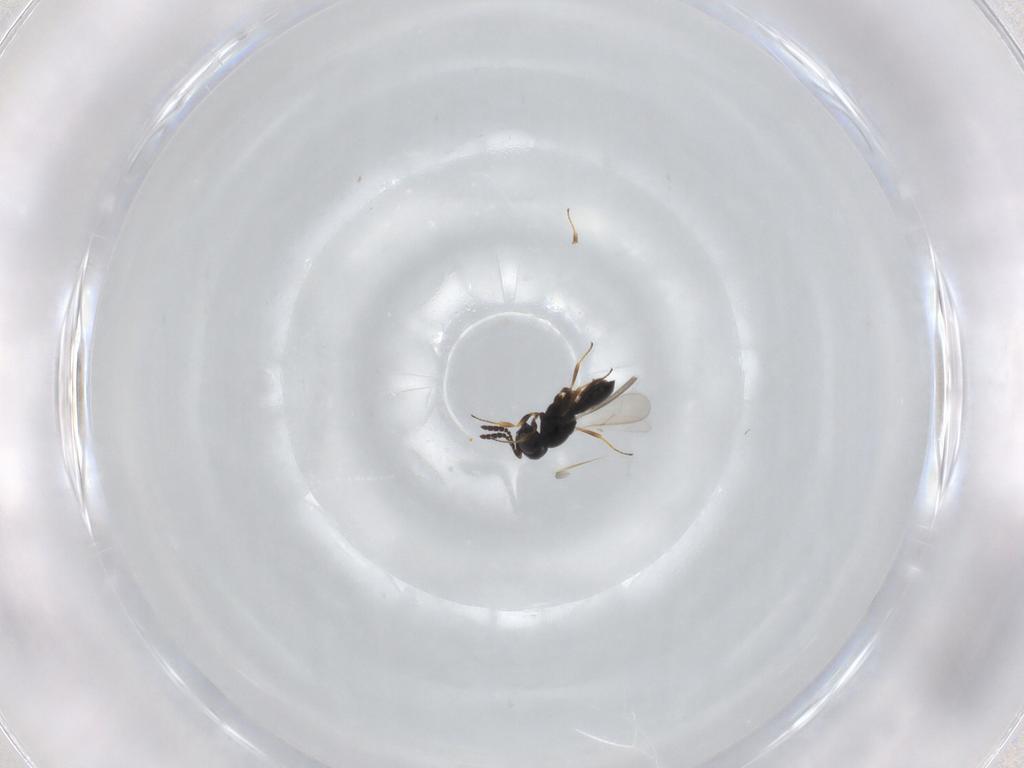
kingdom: Animalia
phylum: Arthropoda
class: Insecta
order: Hymenoptera
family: Scelionidae
